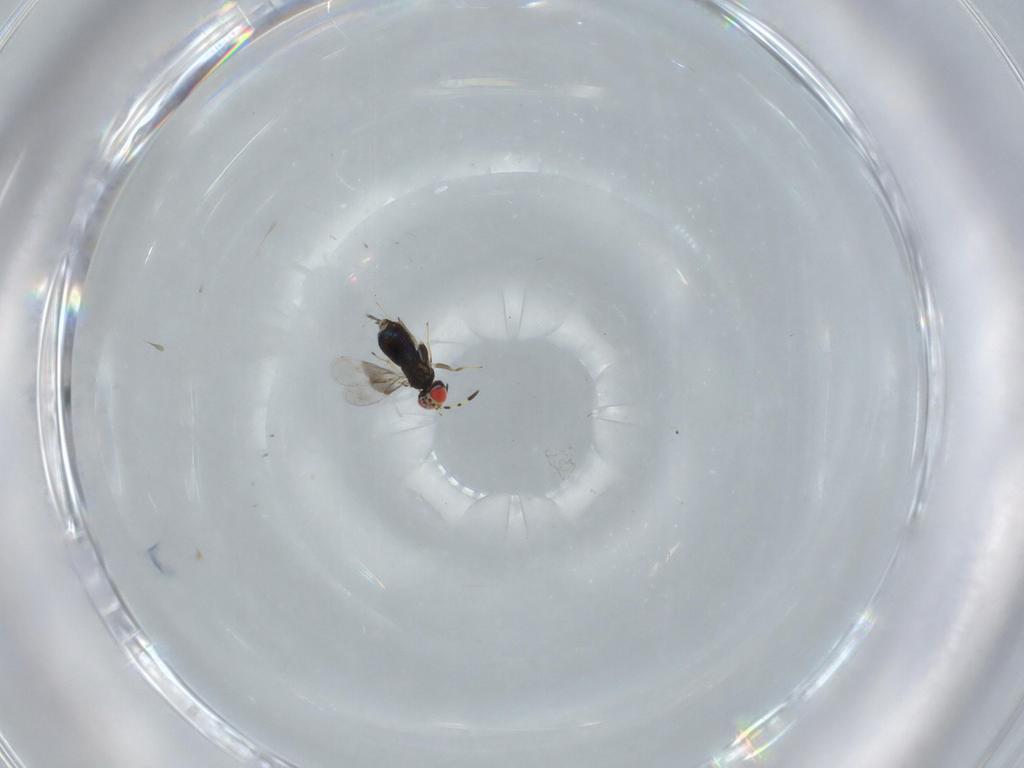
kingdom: Animalia
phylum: Arthropoda
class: Insecta
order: Hymenoptera
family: Azotidae
